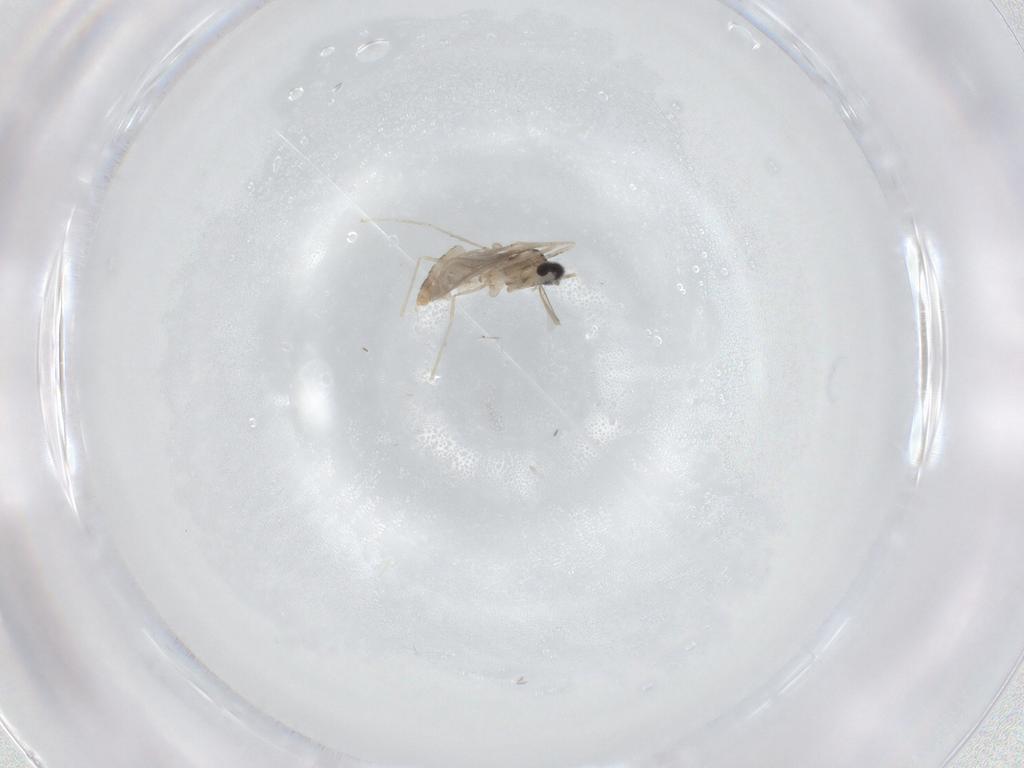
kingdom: Animalia
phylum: Arthropoda
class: Insecta
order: Diptera
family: Cecidomyiidae
